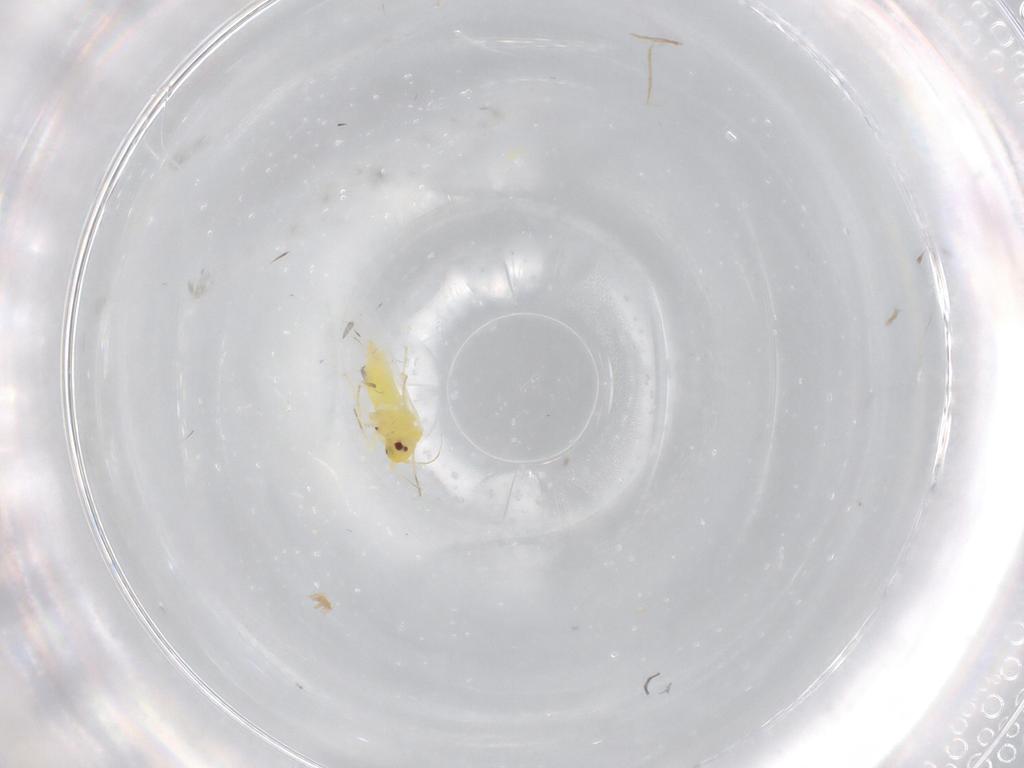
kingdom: Animalia
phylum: Arthropoda
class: Insecta
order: Hemiptera
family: Aleyrodidae
